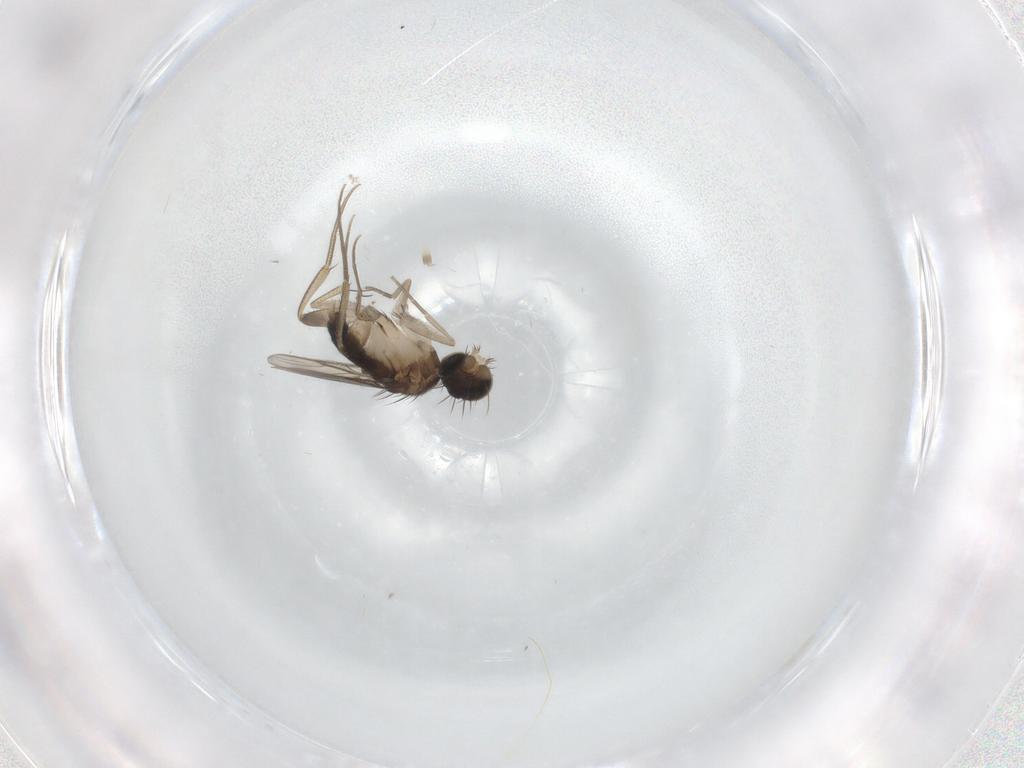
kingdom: Animalia
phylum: Arthropoda
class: Insecta
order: Diptera
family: Phoridae
